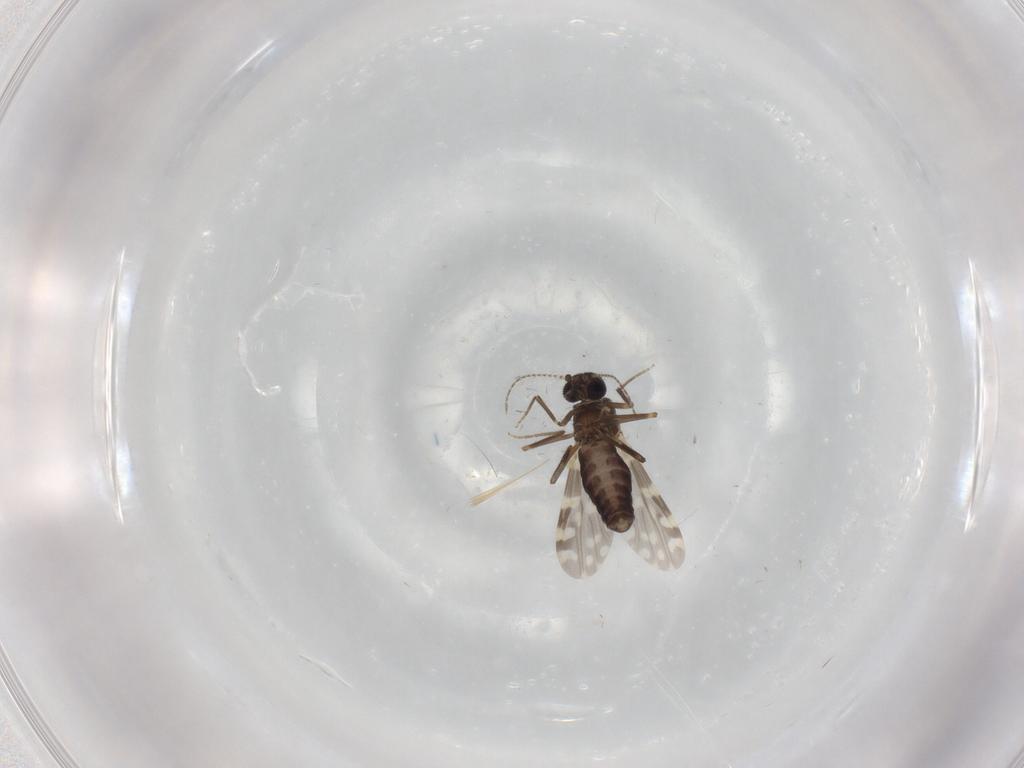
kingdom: Animalia
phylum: Arthropoda
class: Insecta
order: Diptera
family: Ceratopogonidae
